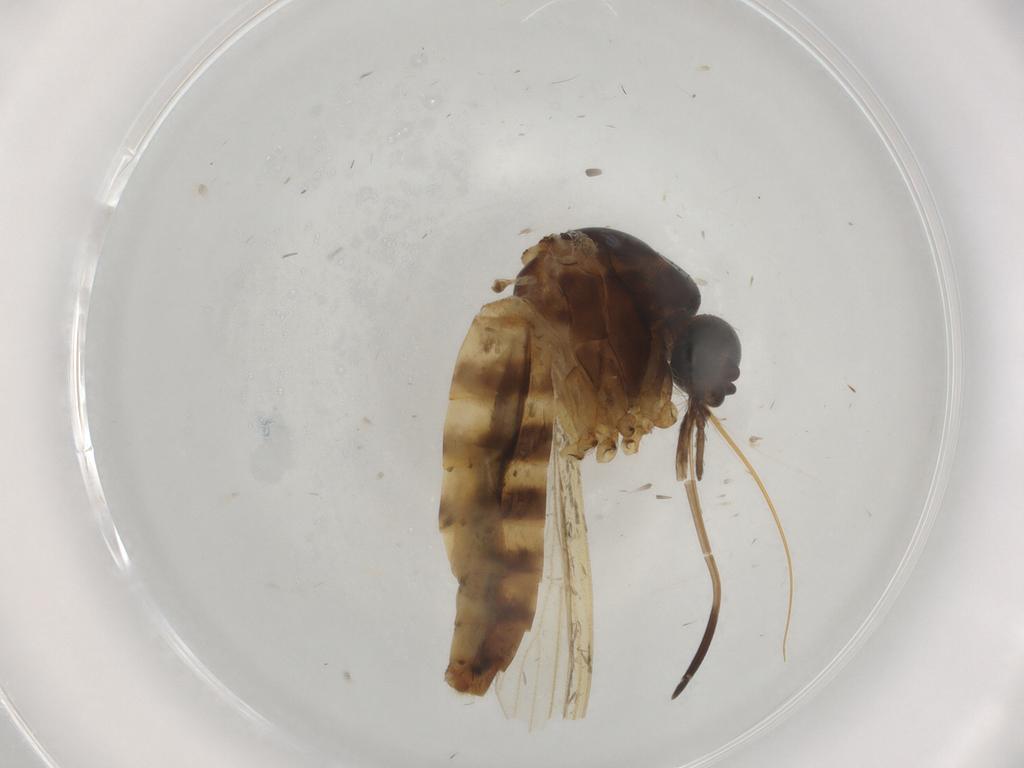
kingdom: Animalia
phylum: Arthropoda
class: Insecta
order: Diptera
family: Ceratopogonidae
